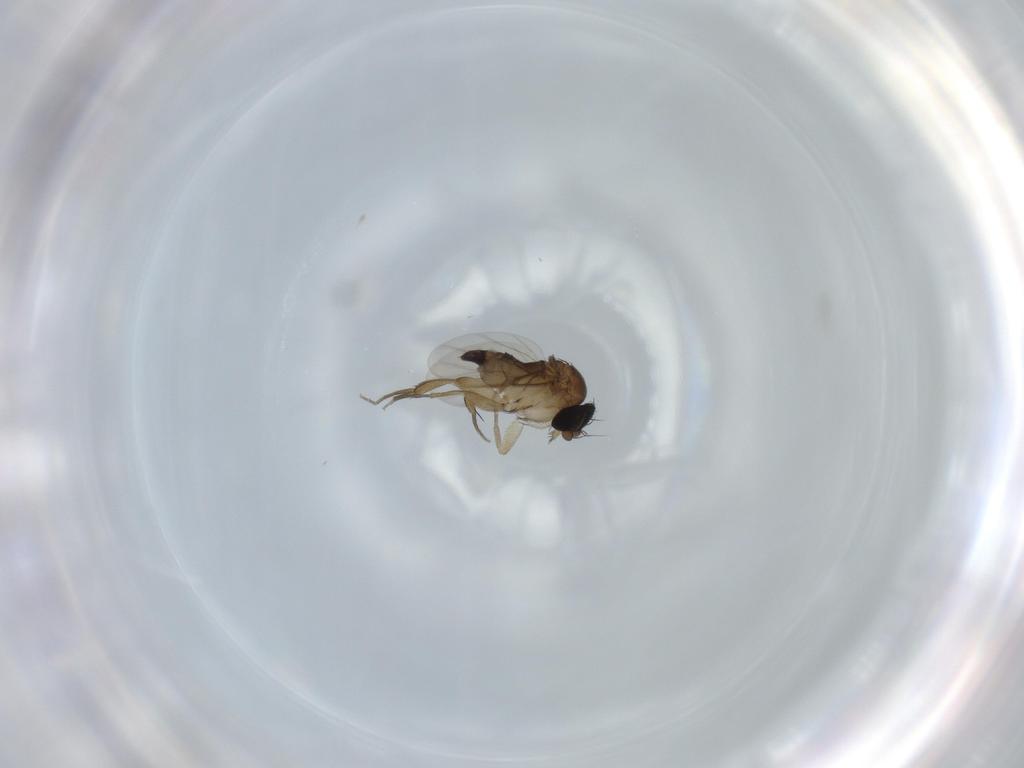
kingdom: Animalia
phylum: Arthropoda
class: Insecta
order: Diptera
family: Phoridae
